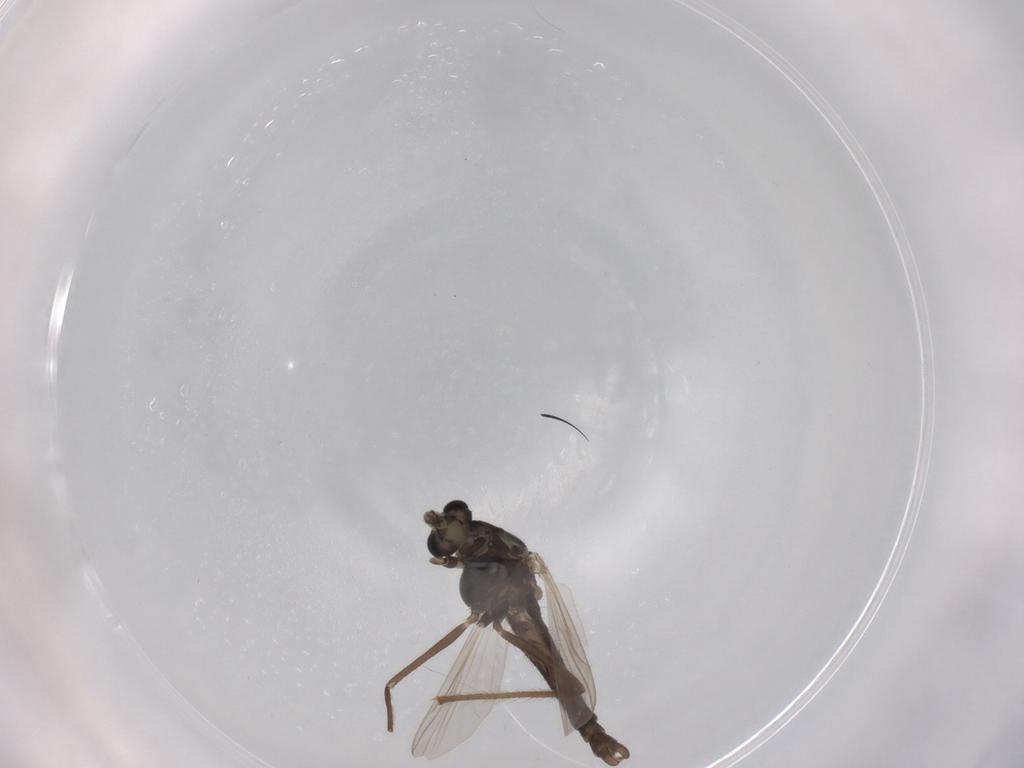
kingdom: Animalia
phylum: Arthropoda
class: Insecta
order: Diptera
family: Chironomidae
